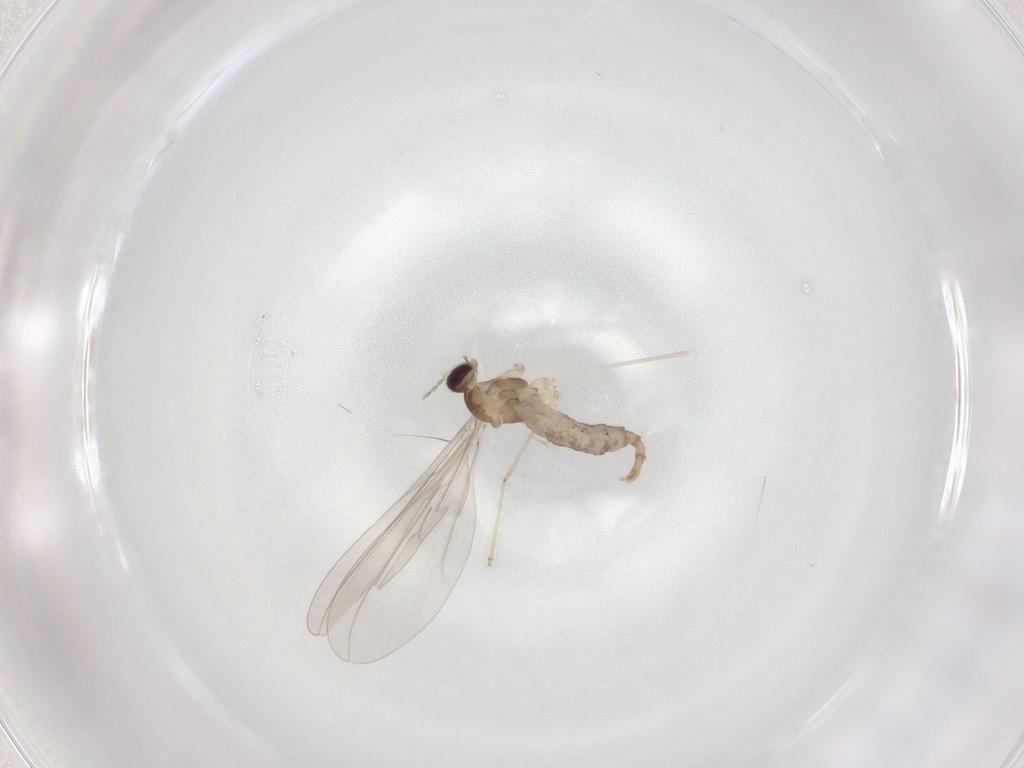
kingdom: Animalia
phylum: Arthropoda
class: Insecta
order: Diptera
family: Cecidomyiidae
